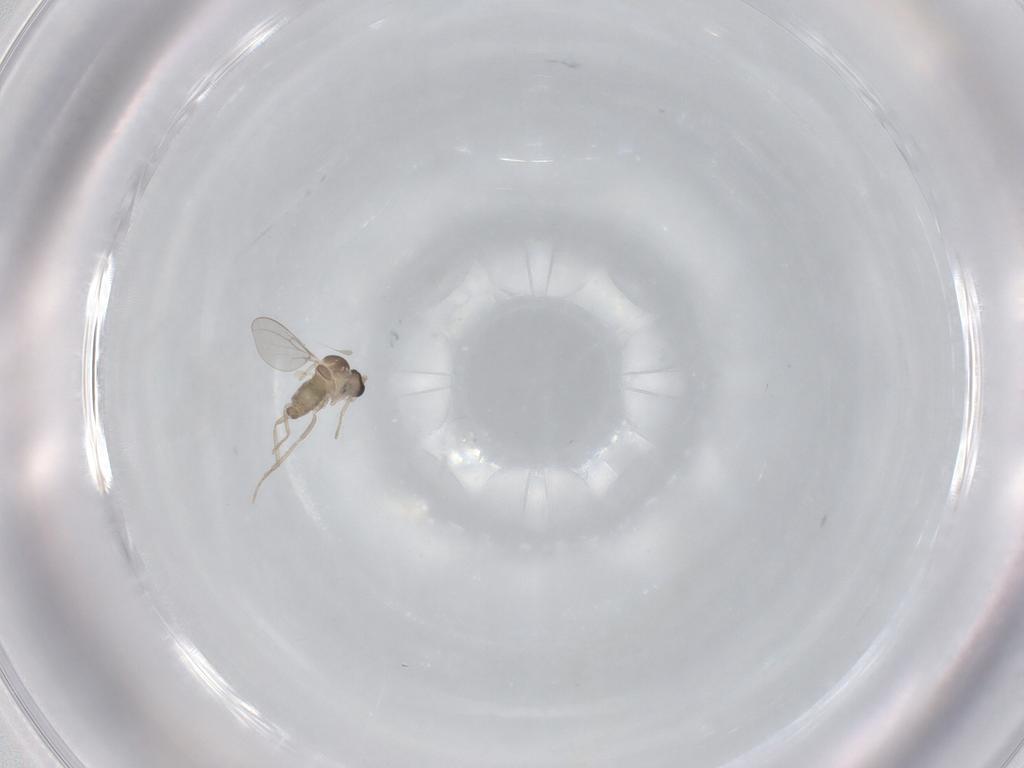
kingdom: Animalia
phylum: Arthropoda
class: Insecta
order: Diptera
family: Cecidomyiidae
